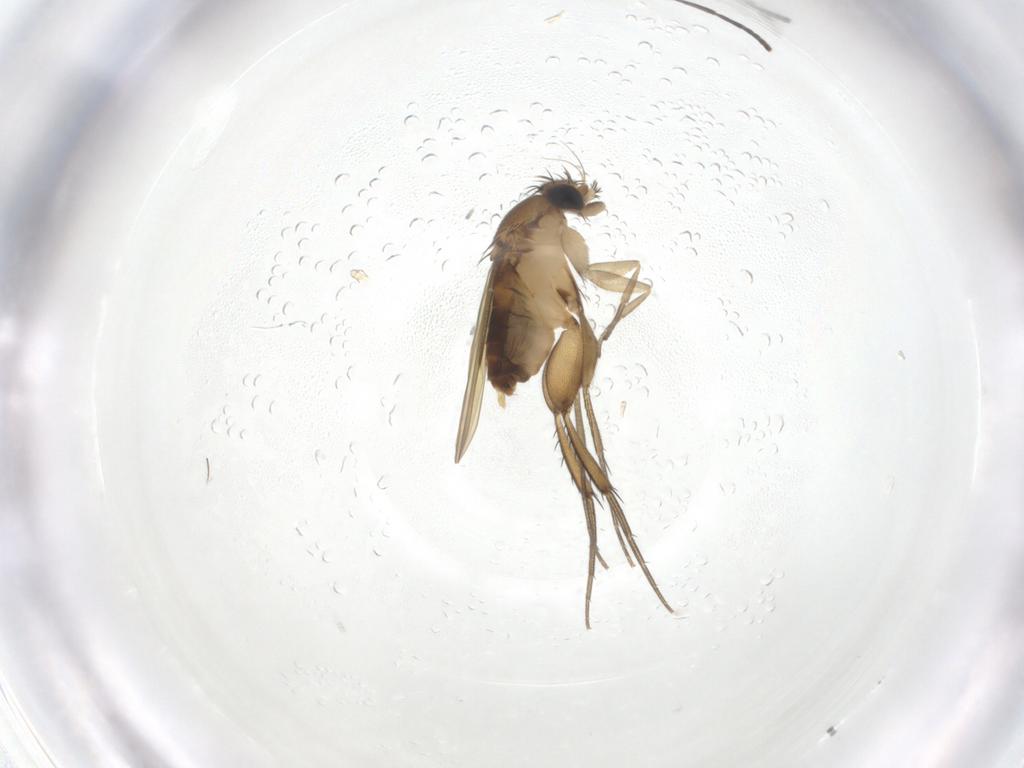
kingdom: Animalia
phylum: Arthropoda
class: Insecta
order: Diptera
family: Phoridae
